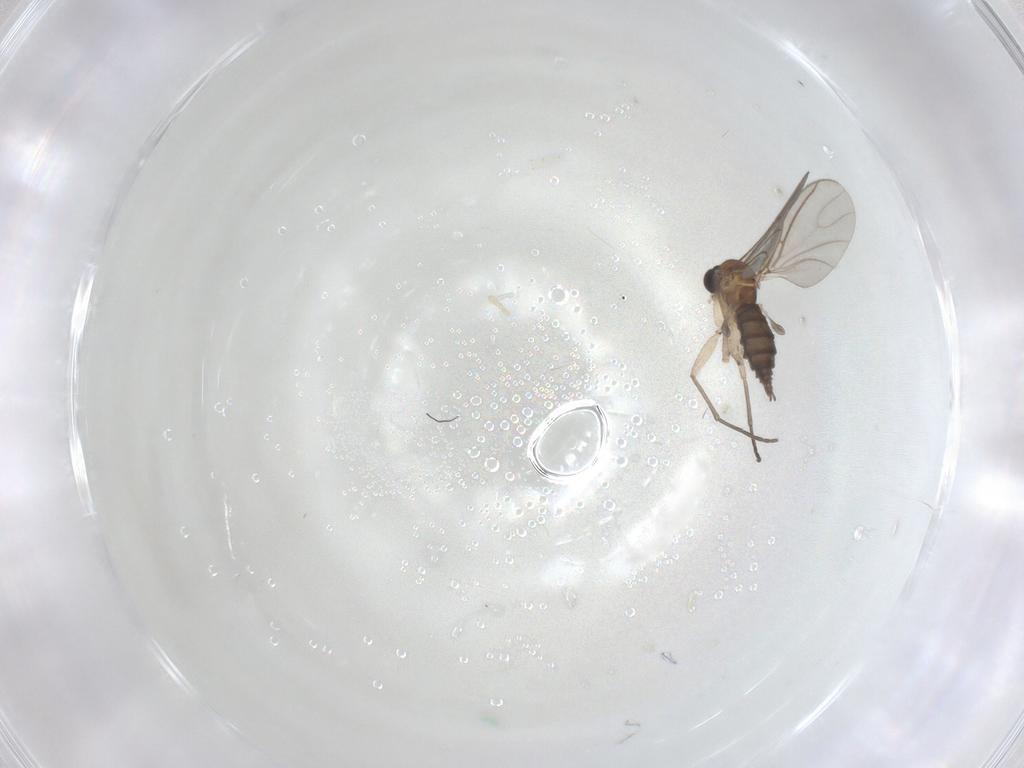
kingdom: Animalia
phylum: Arthropoda
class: Insecta
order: Diptera
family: Sciaridae
